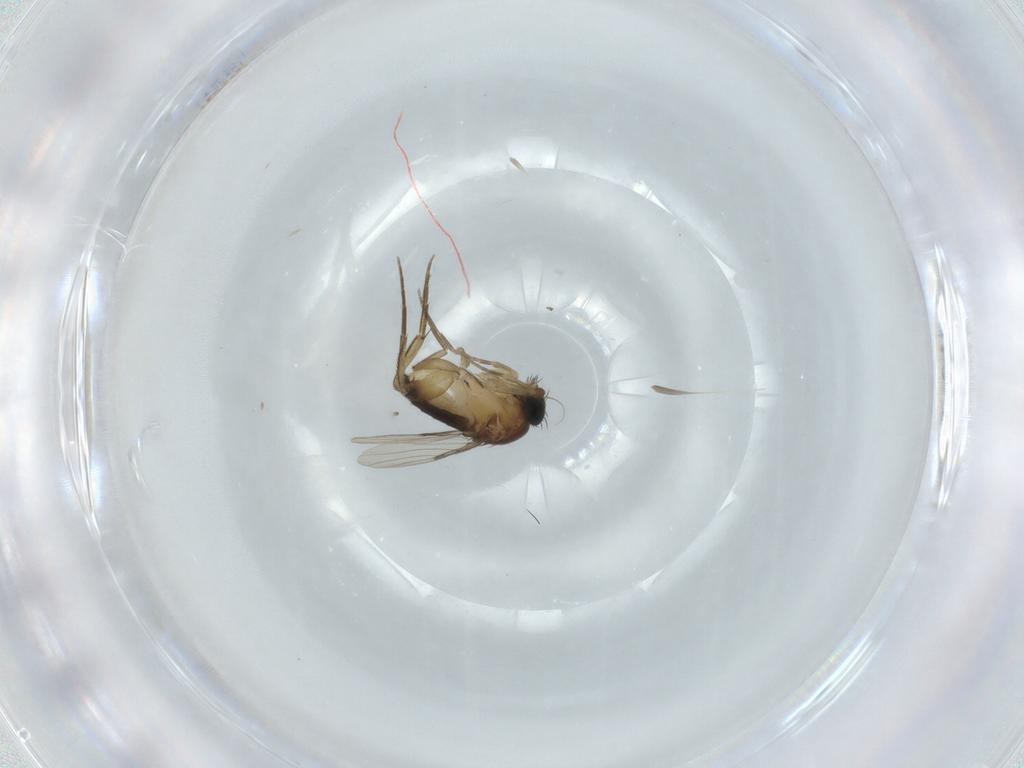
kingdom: Animalia
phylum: Arthropoda
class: Insecta
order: Diptera
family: Phoridae
